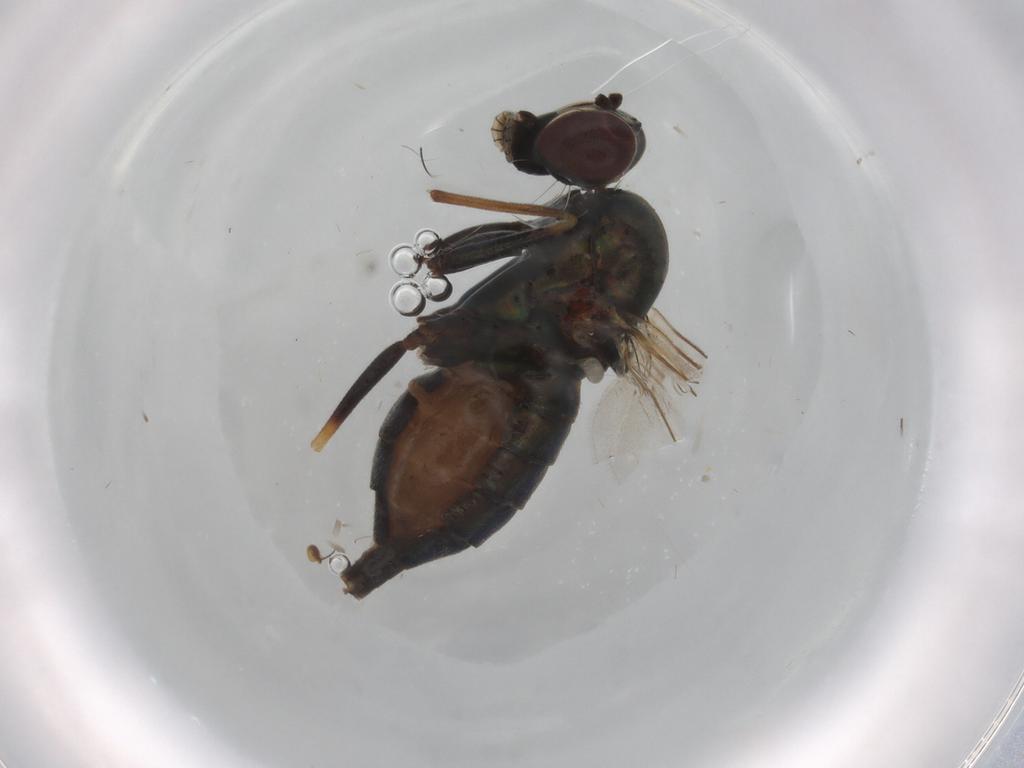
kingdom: Animalia
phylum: Arthropoda
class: Insecta
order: Diptera
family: Dolichopodidae
